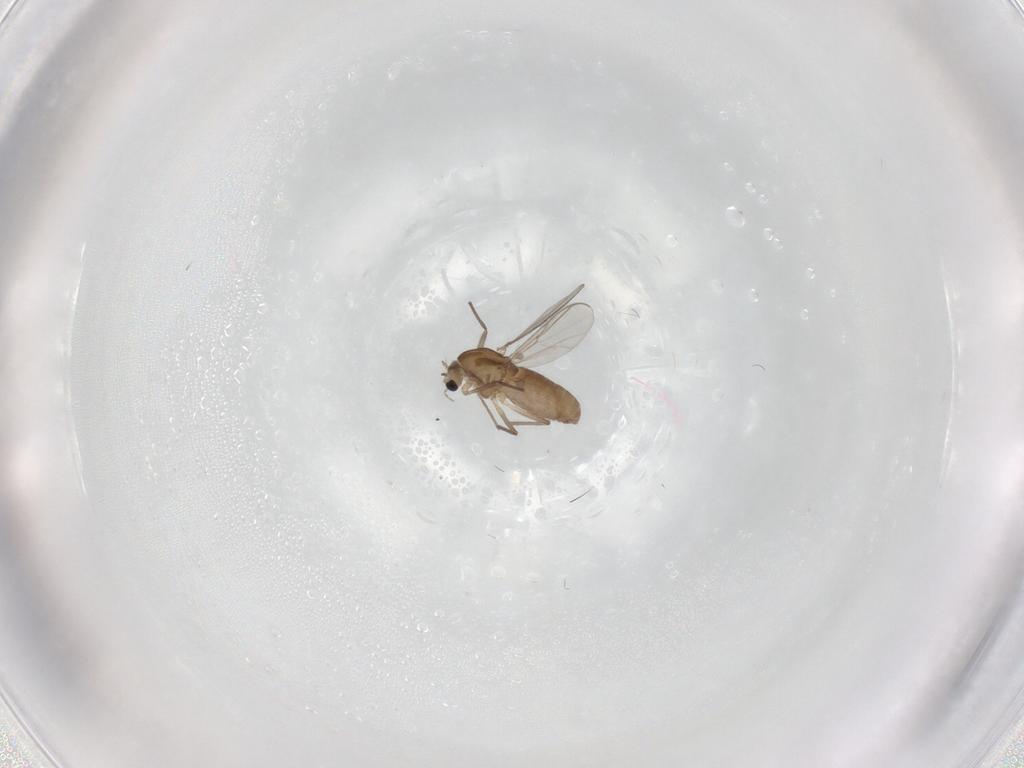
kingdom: Animalia
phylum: Arthropoda
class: Insecta
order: Diptera
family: Chironomidae
